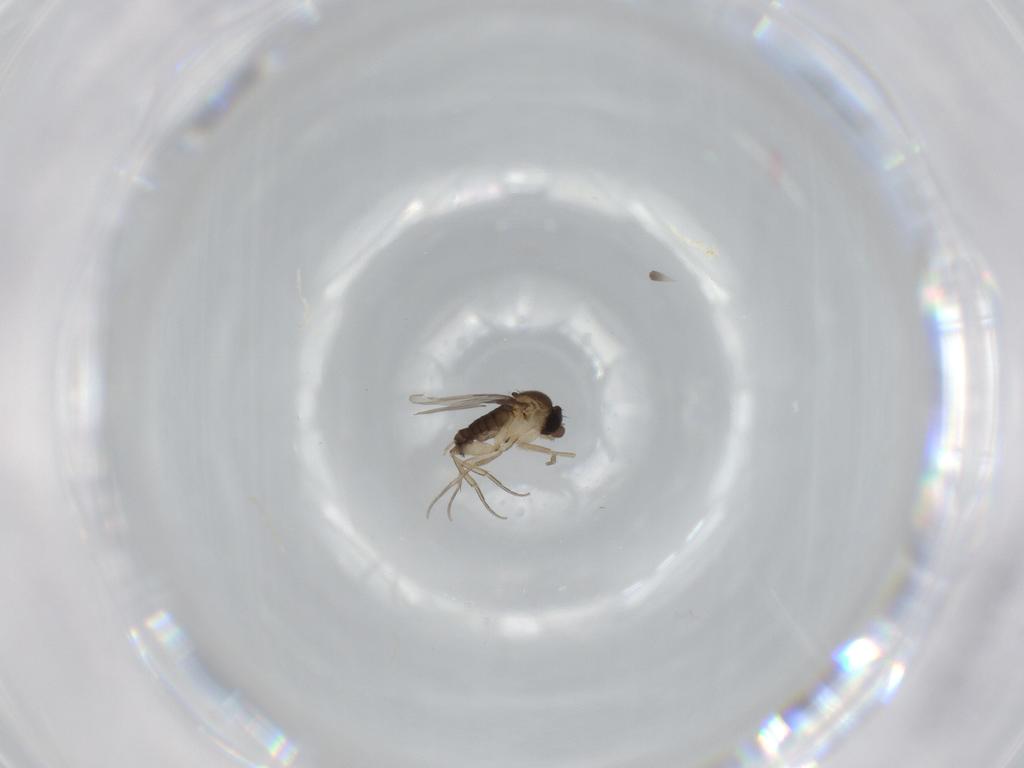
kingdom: Animalia
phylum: Arthropoda
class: Insecta
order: Diptera
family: Phoridae
